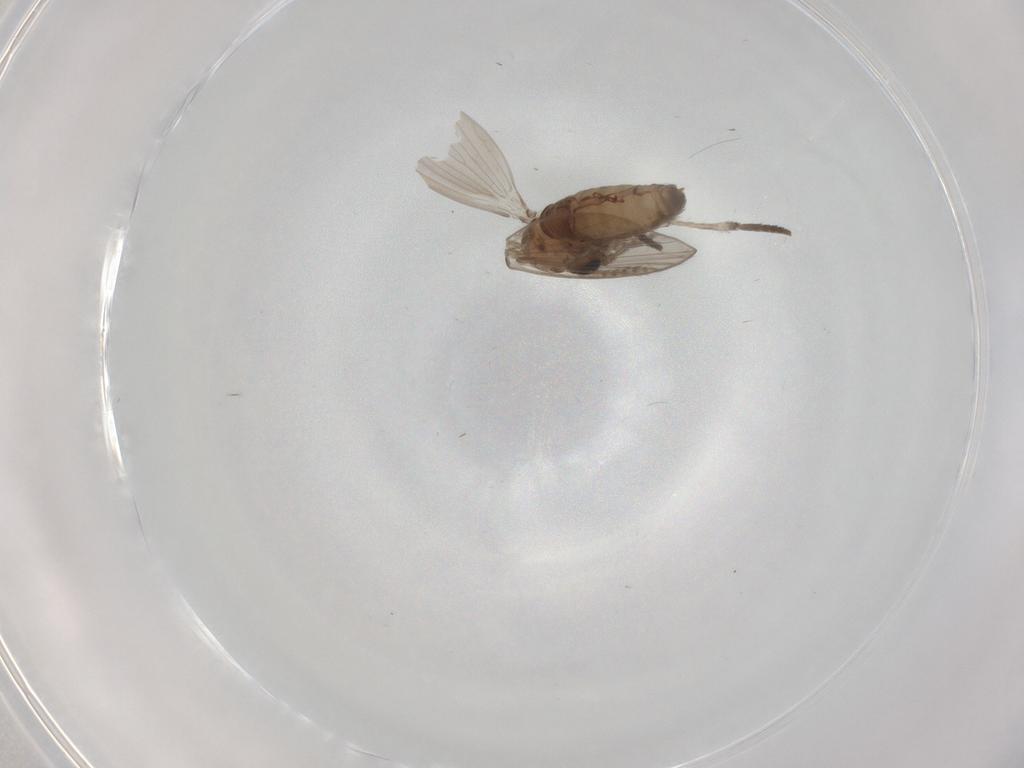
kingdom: Animalia
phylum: Arthropoda
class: Insecta
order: Diptera
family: Psychodidae
